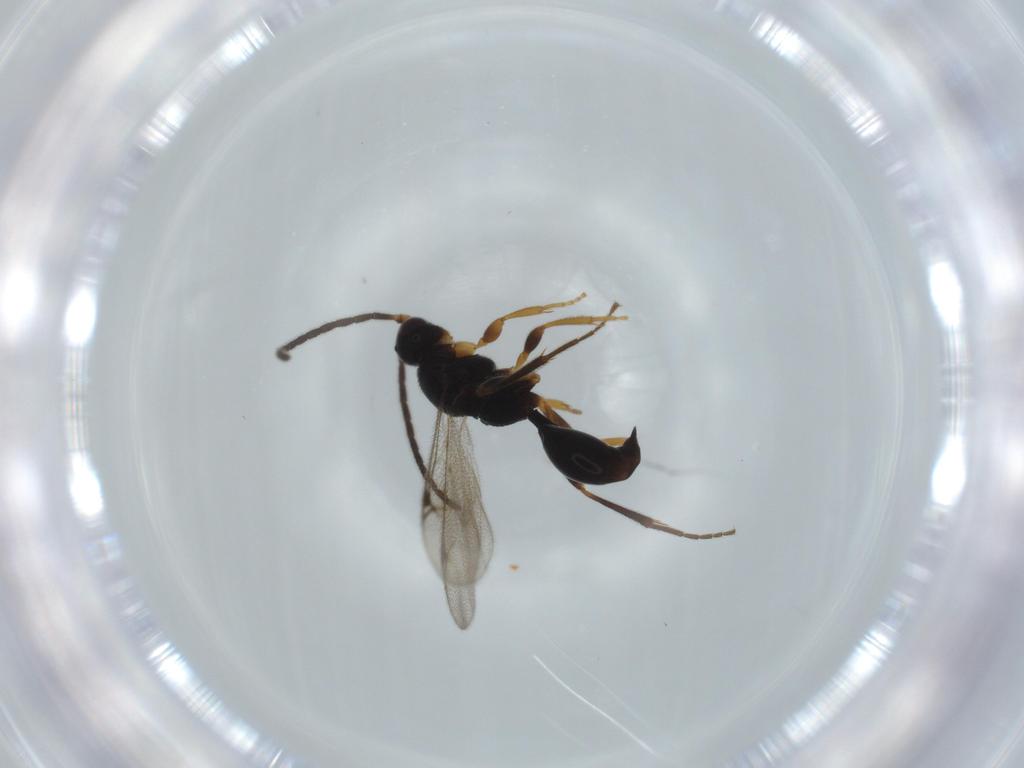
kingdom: Animalia
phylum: Arthropoda
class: Insecta
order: Hymenoptera
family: Proctotrupidae
